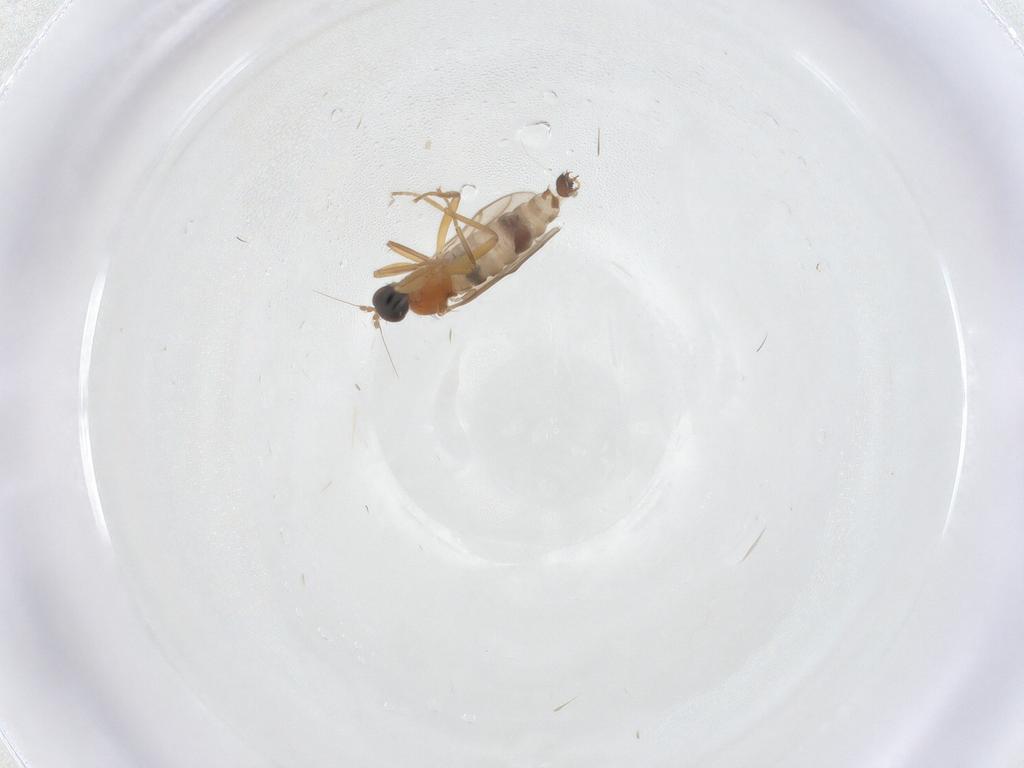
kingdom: Animalia
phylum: Arthropoda
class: Insecta
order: Diptera
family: Hybotidae
